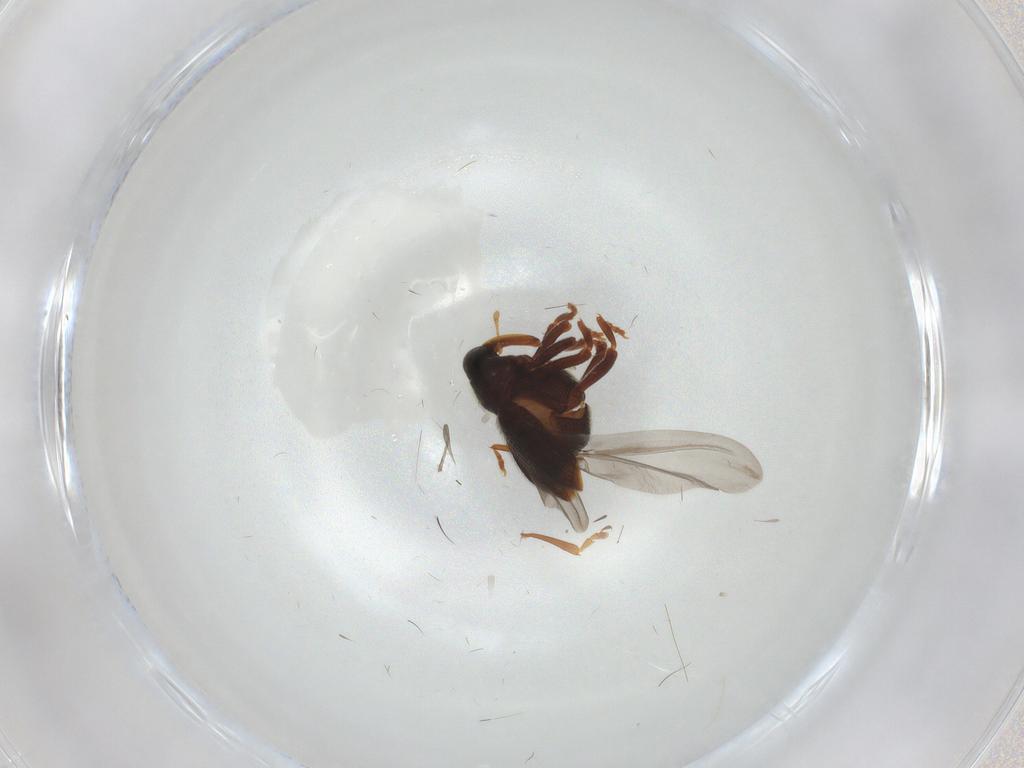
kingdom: Animalia
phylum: Arthropoda
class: Insecta
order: Coleoptera
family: Curculionidae
